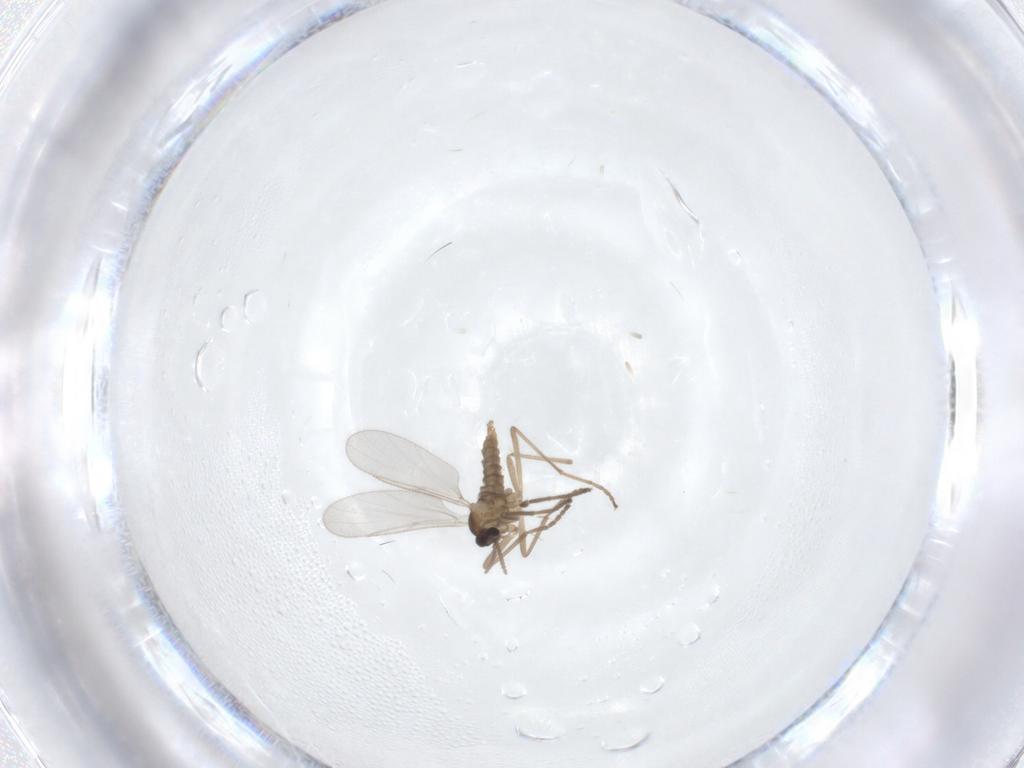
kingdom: Animalia
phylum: Arthropoda
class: Insecta
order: Diptera
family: Cecidomyiidae
